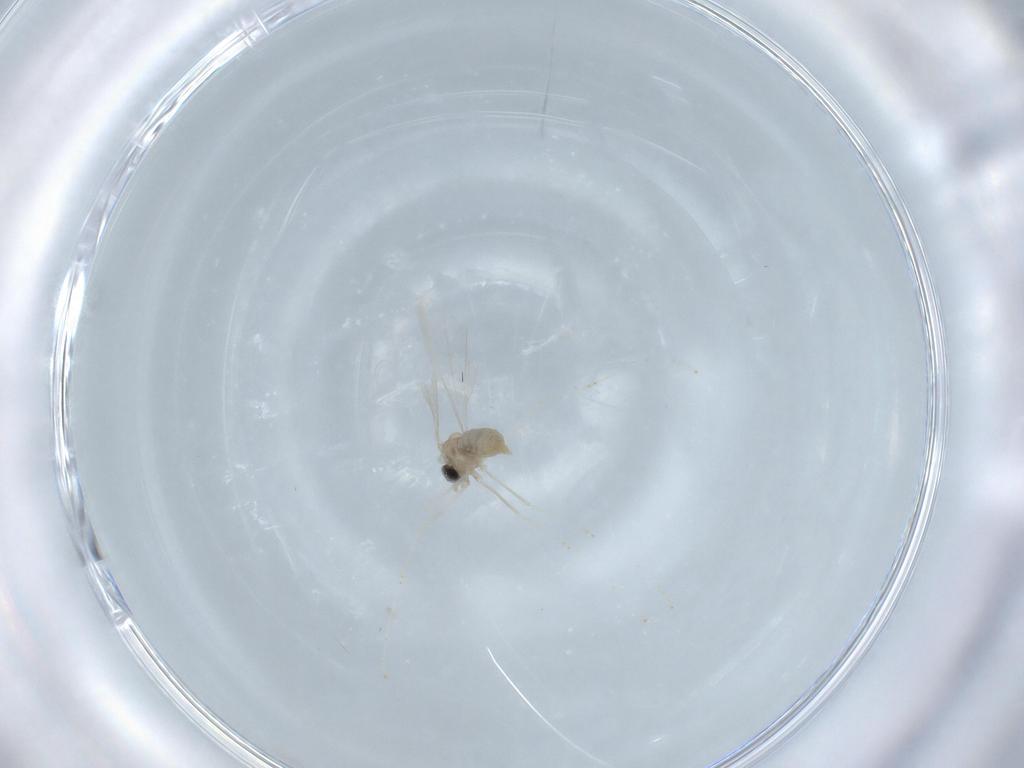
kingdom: Animalia
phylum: Arthropoda
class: Insecta
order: Diptera
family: Cecidomyiidae
